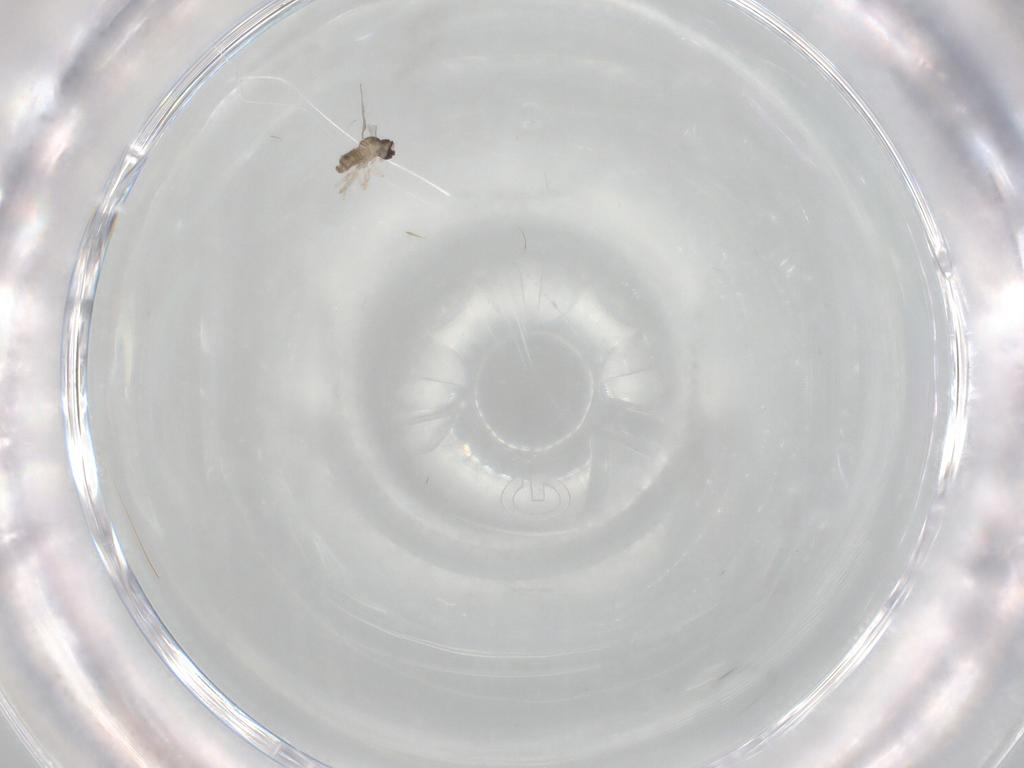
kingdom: Animalia
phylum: Arthropoda
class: Insecta
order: Diptera
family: Cecidomyiidae
